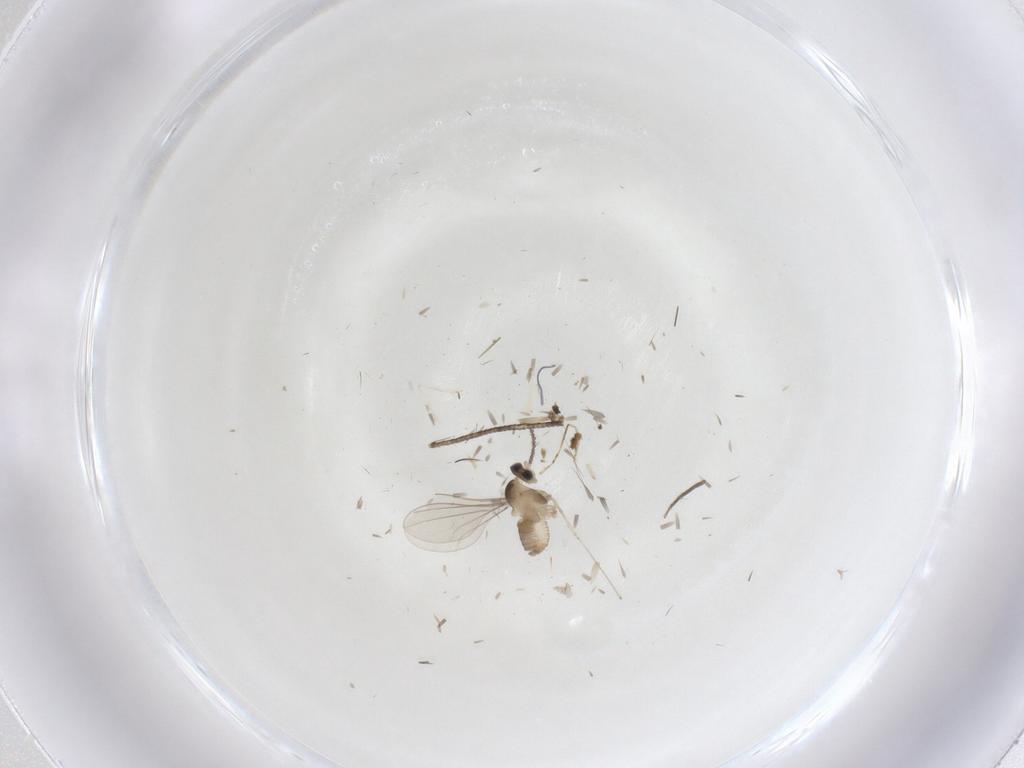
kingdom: Animalia
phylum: Arthropoda
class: Insecta
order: Diptera
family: Cecidomyiidae
